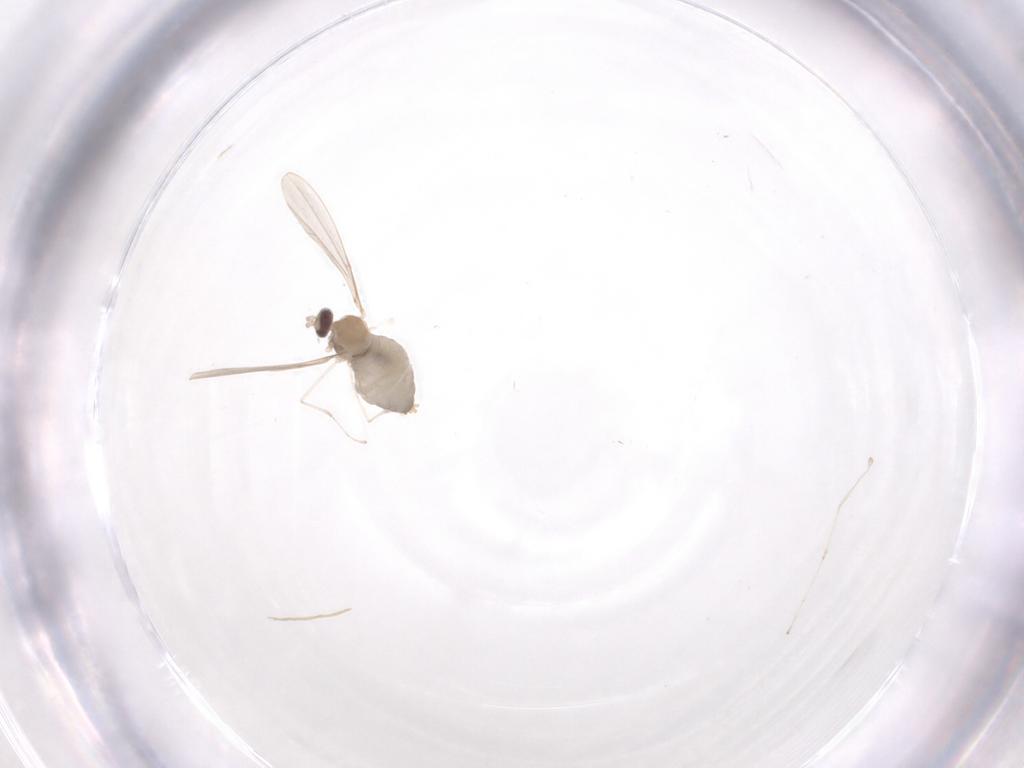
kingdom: Animalia
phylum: Arthropoda
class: Insecta
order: Diptera
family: Cecidomyiidae
